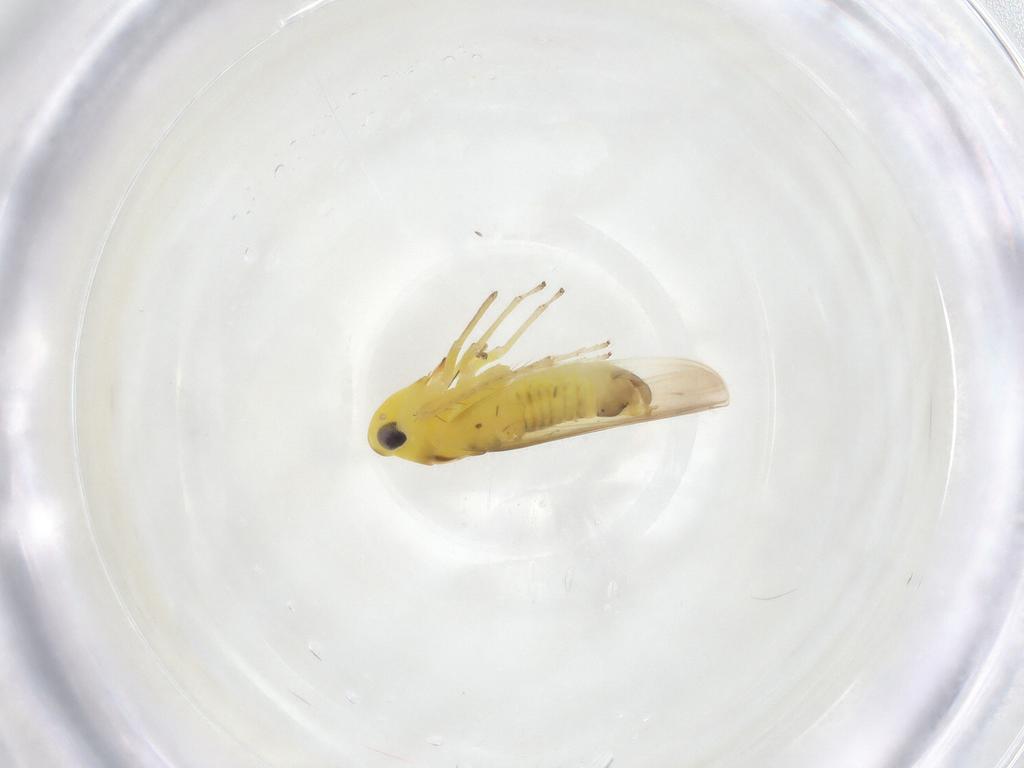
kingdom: Animalia
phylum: Arthropoda
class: Insecta
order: Hemiptera
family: Cicadellidae
